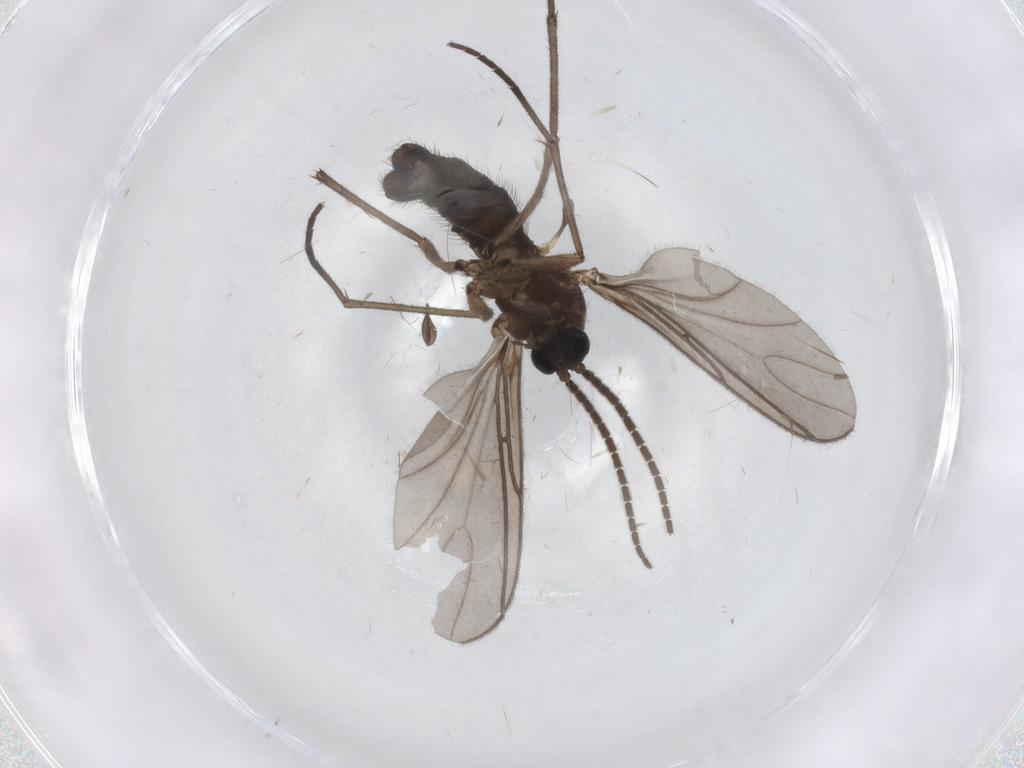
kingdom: Animalia
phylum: Arthropoda
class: Insecta
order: Diptera
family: Sciaridae
